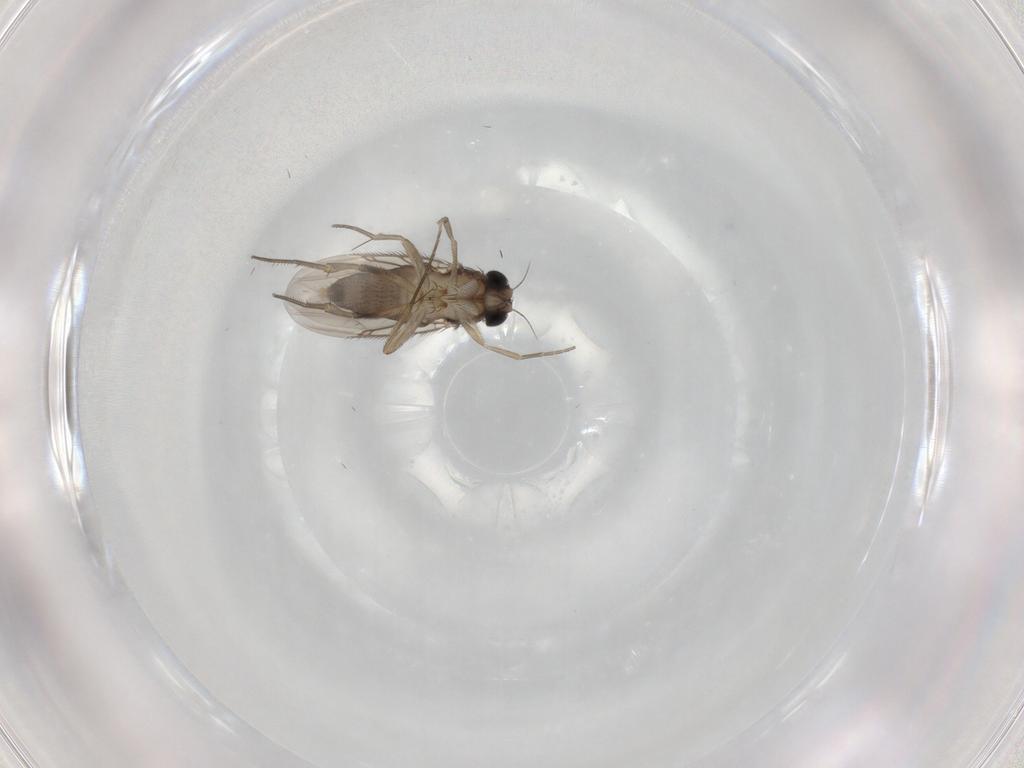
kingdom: Animalia
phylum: Arthropoda
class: Insecta
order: Diptera
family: Phoridae
